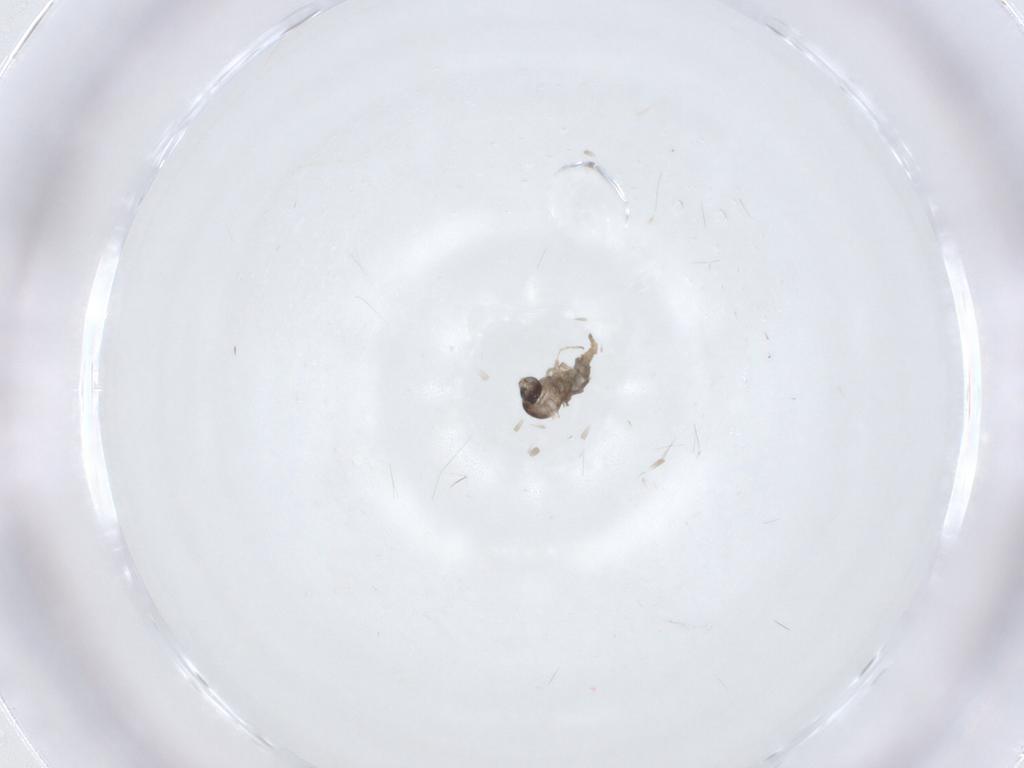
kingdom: Animalia
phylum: Arthropoda
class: Insecta
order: Diptera
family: Cecidomyiidae
